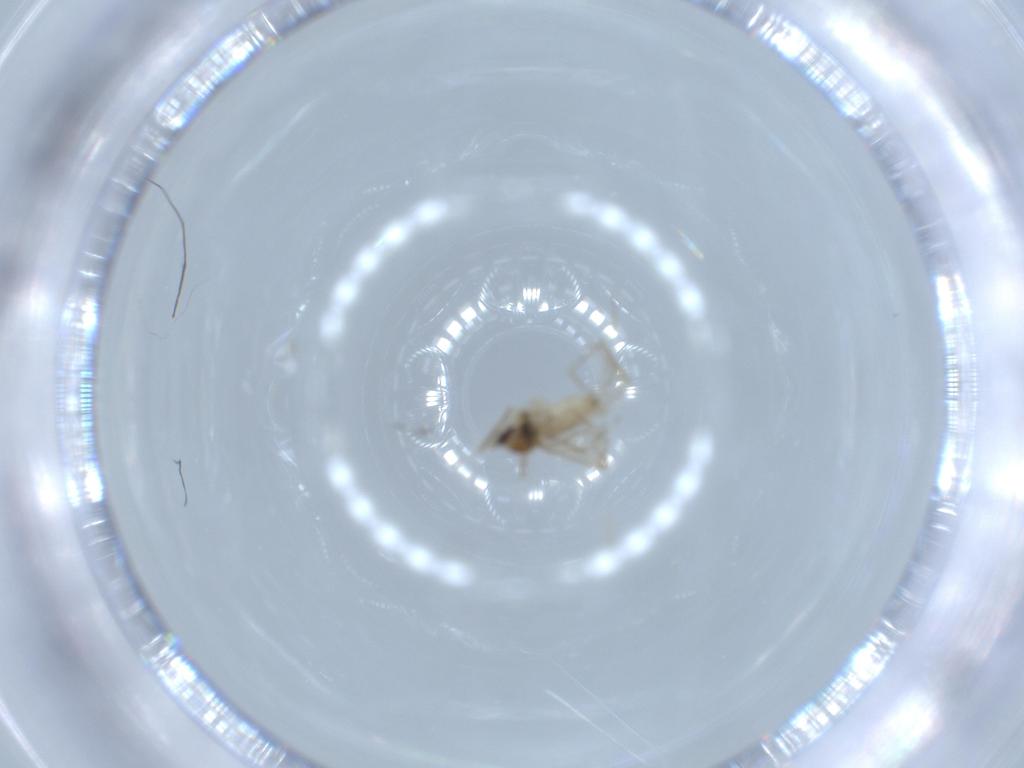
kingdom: Animalia
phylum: Arthropoda
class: Insecta
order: Diptera
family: Cecidomyiidae
